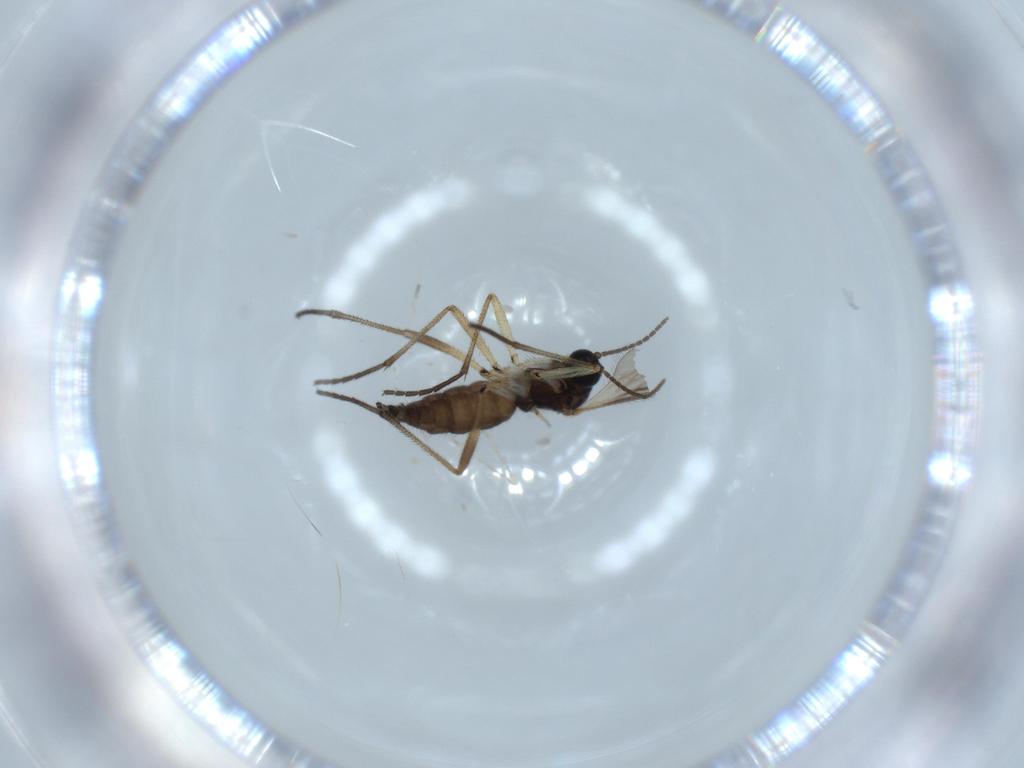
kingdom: Animalia
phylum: Arthropoda
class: Insecta
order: Diptera
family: Sciaridae
